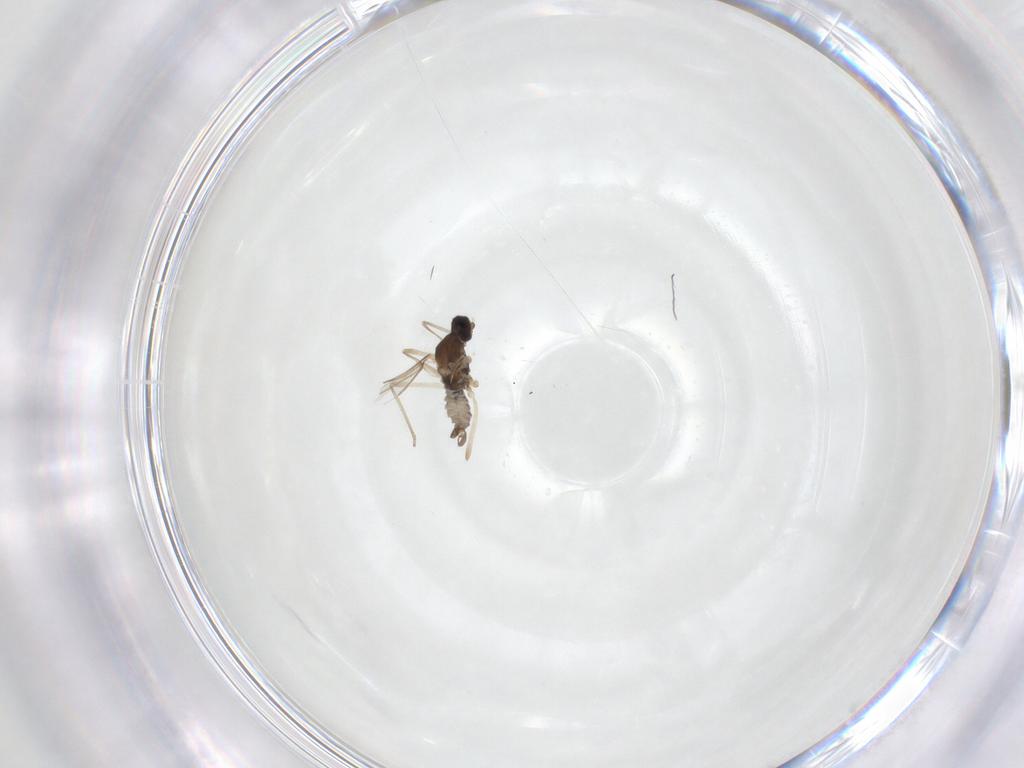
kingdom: Animalia
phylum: Arthropoda
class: Insecta
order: Diptera
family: Cecidomyiidae
